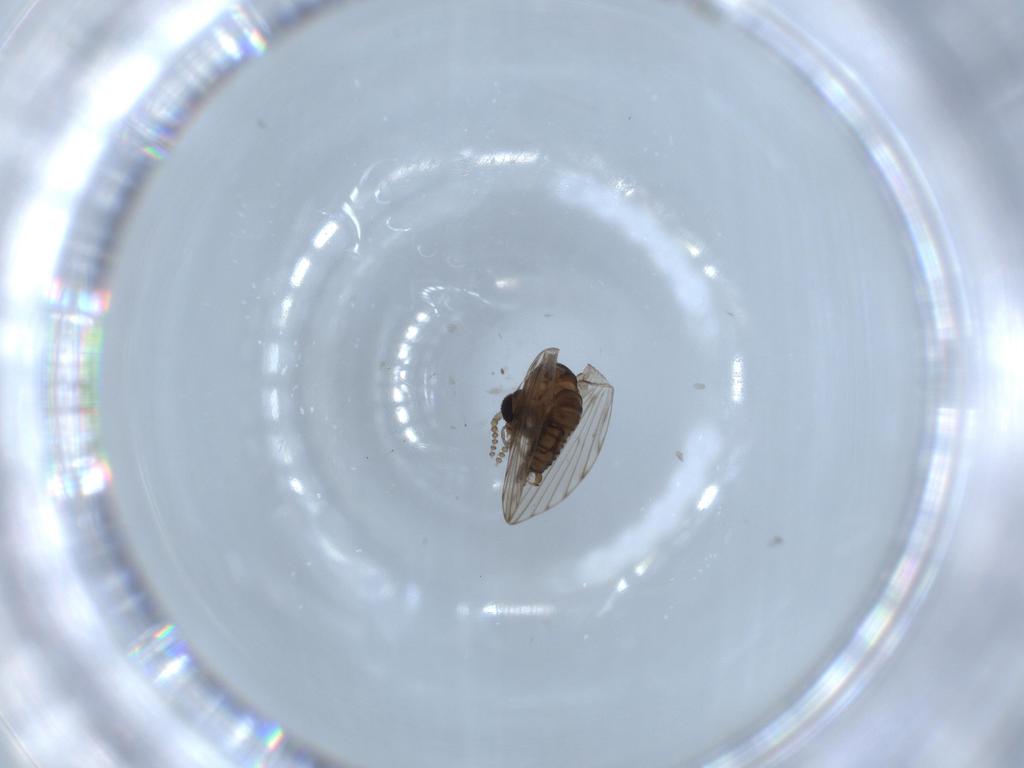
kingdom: Animalia
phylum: Arthropoda
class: Insecta
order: Diptera
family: Psychodidae
